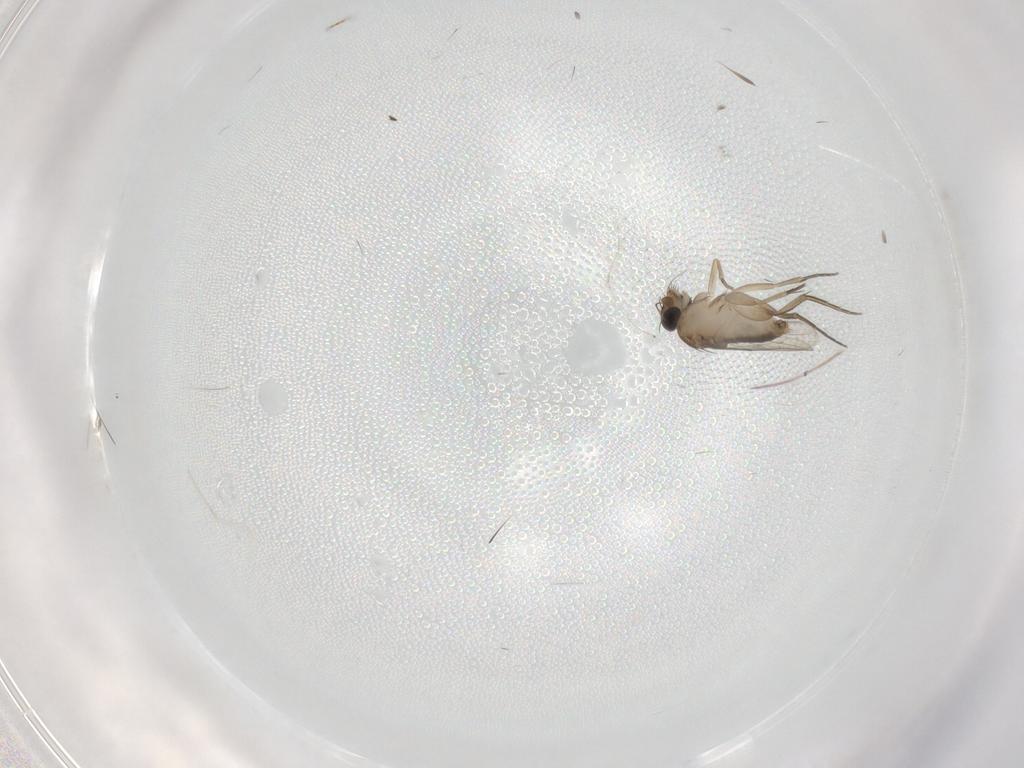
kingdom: Animalia
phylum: Arthropoda
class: Insecta
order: Diptera
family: Phoridae
